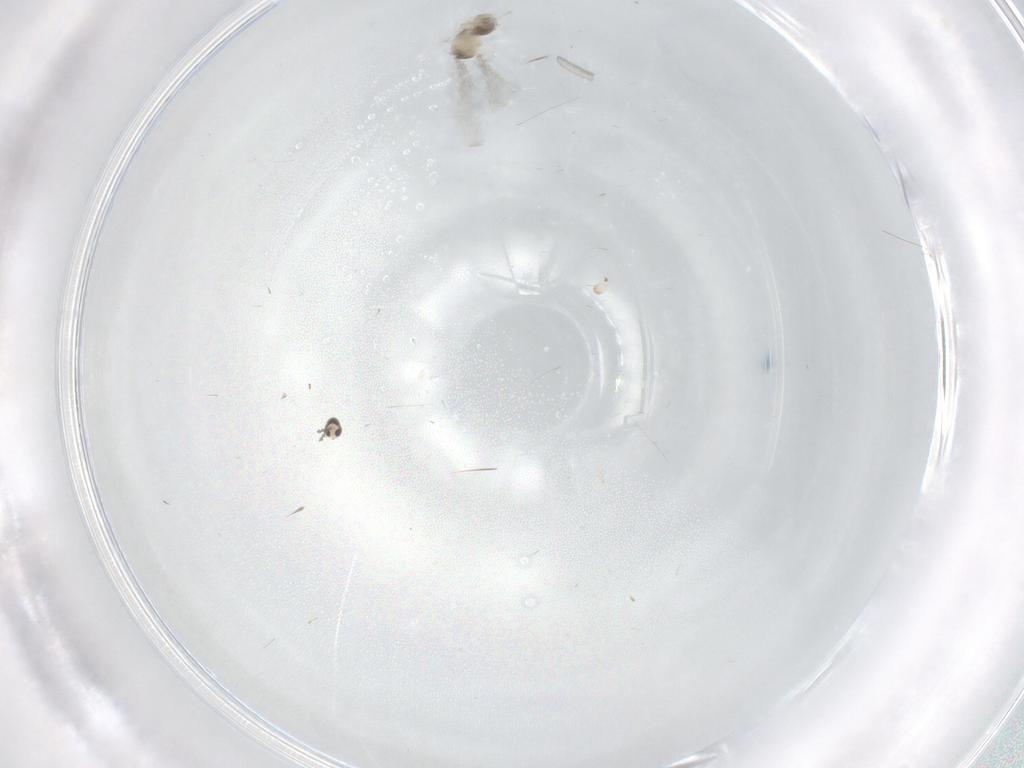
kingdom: Animalia
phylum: Arthropoda
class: Insecta
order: Diptera
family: Cecidomyiidae
